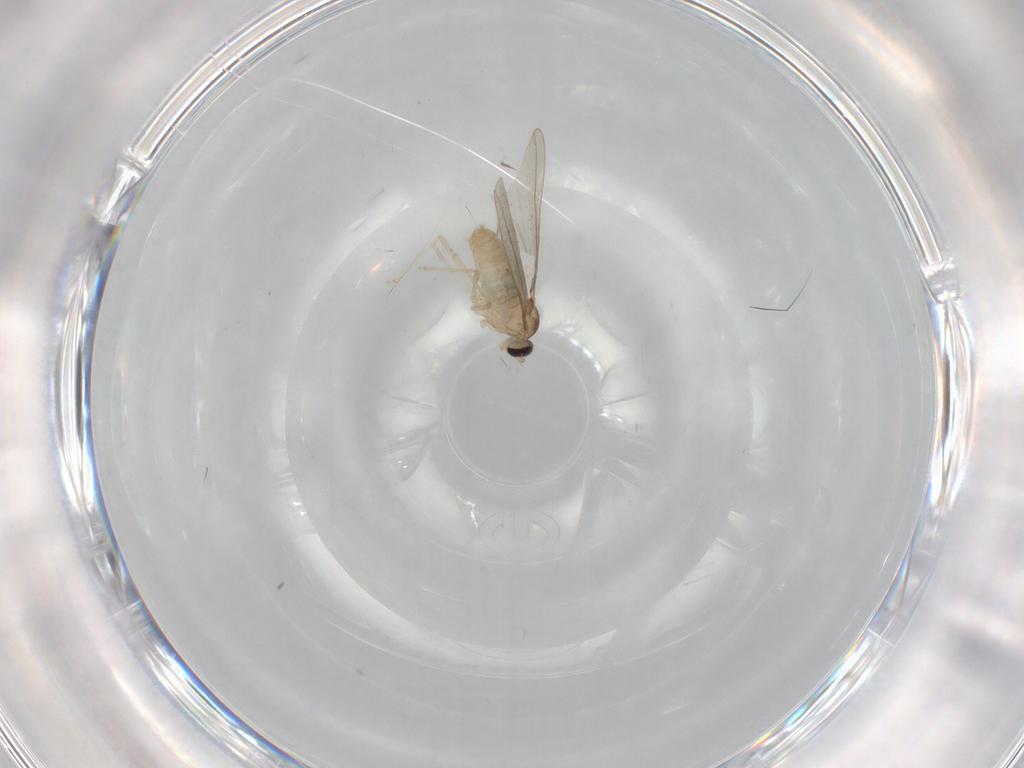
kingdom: Animalia
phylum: Arthropoda
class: Insecta
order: Diptera
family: Cecidomyiidae
